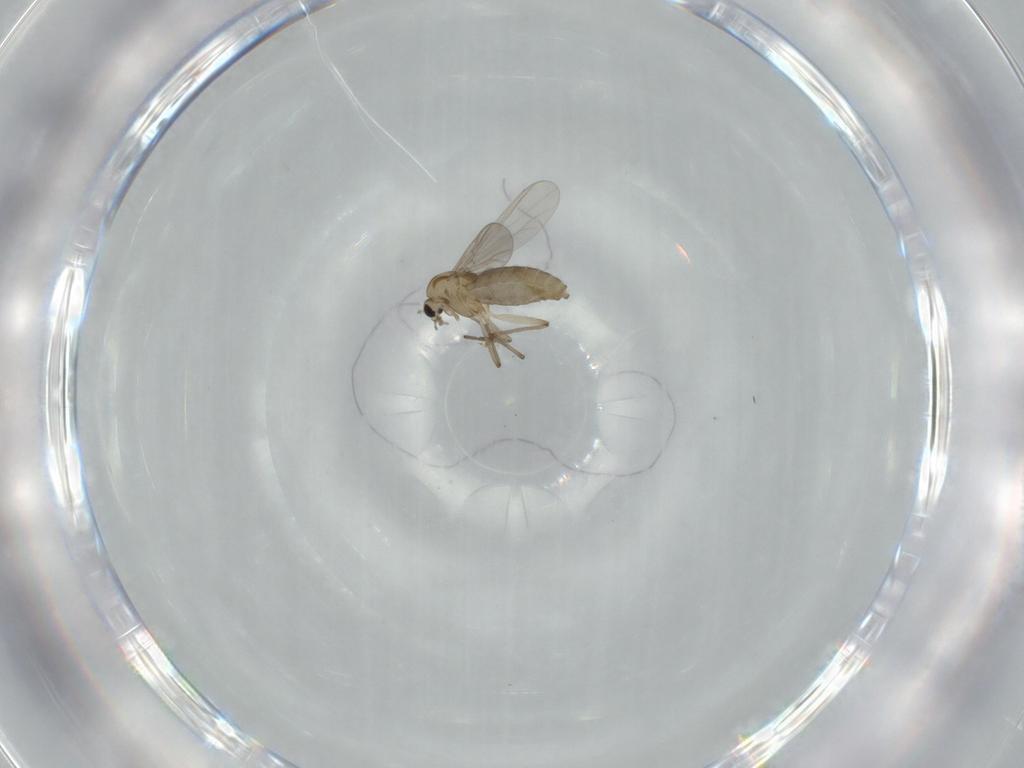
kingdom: Animalia
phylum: Arthropoda
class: Insecta
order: Diptera
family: Chironomidae
